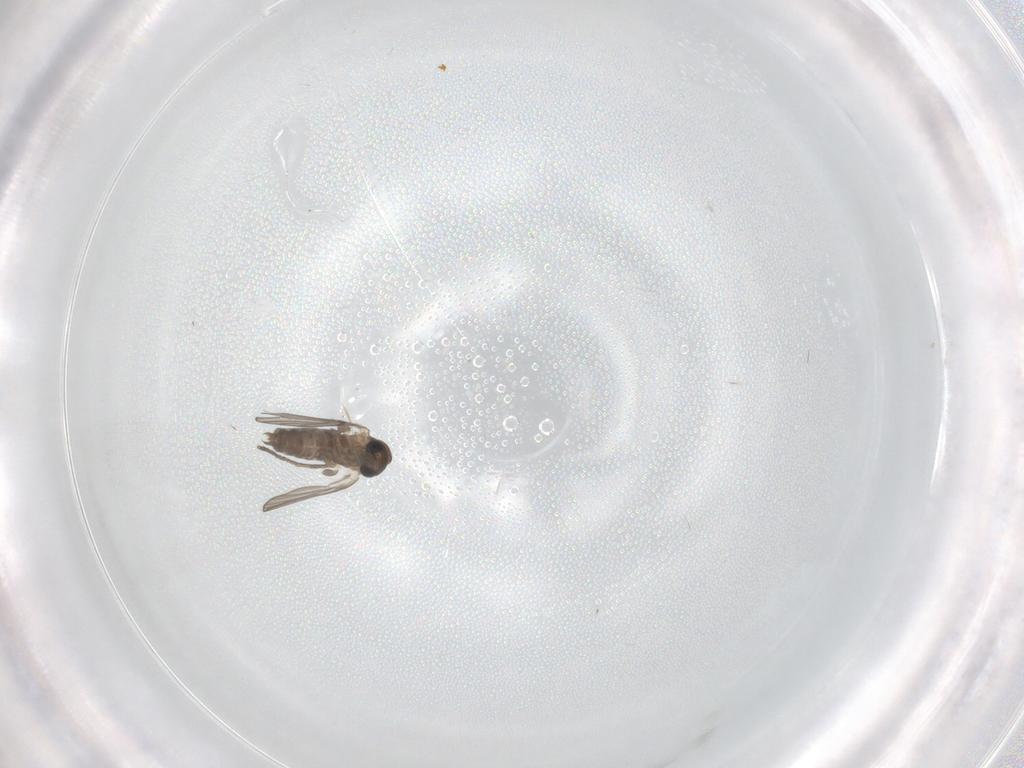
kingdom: Animalia
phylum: Arthropoda
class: Insecta
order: Diptera
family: Cecidomyiidae
